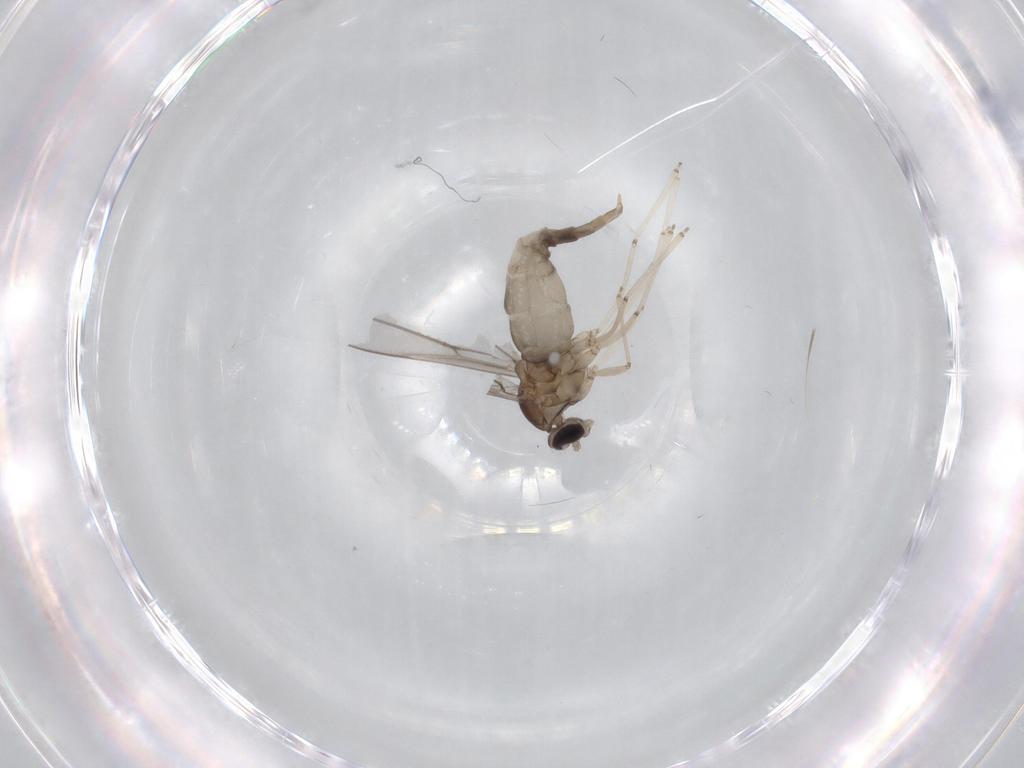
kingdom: Animalia
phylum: Arthropoda
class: Insecta
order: Diptera
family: Cecidomyiidae
